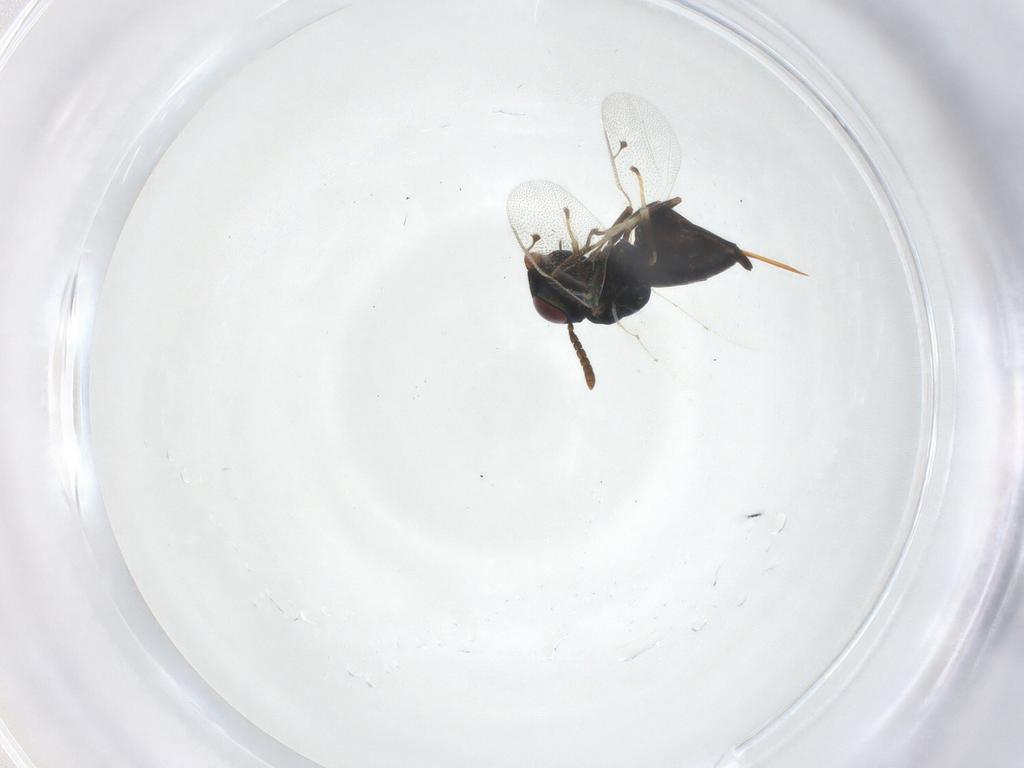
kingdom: Animalia
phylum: Arthropoda
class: Insecta
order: Hymenoptera
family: Pteromalidae
